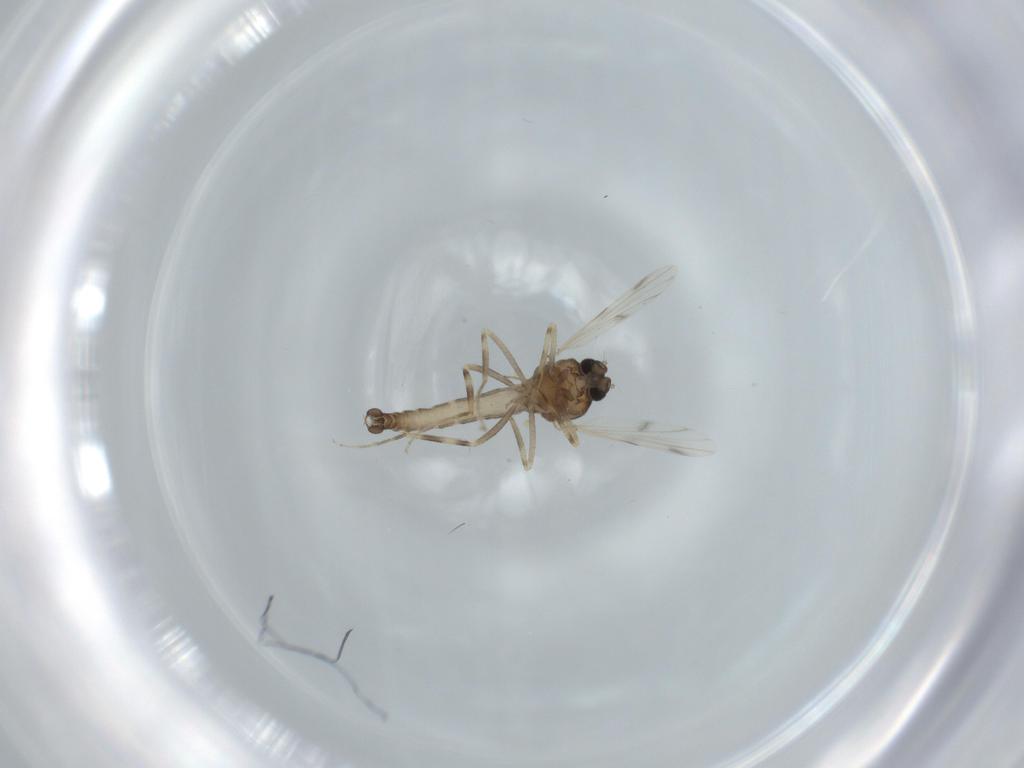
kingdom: Animalia
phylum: Arthropoda
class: Insecta
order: Diptera
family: Ceratopogonidae
